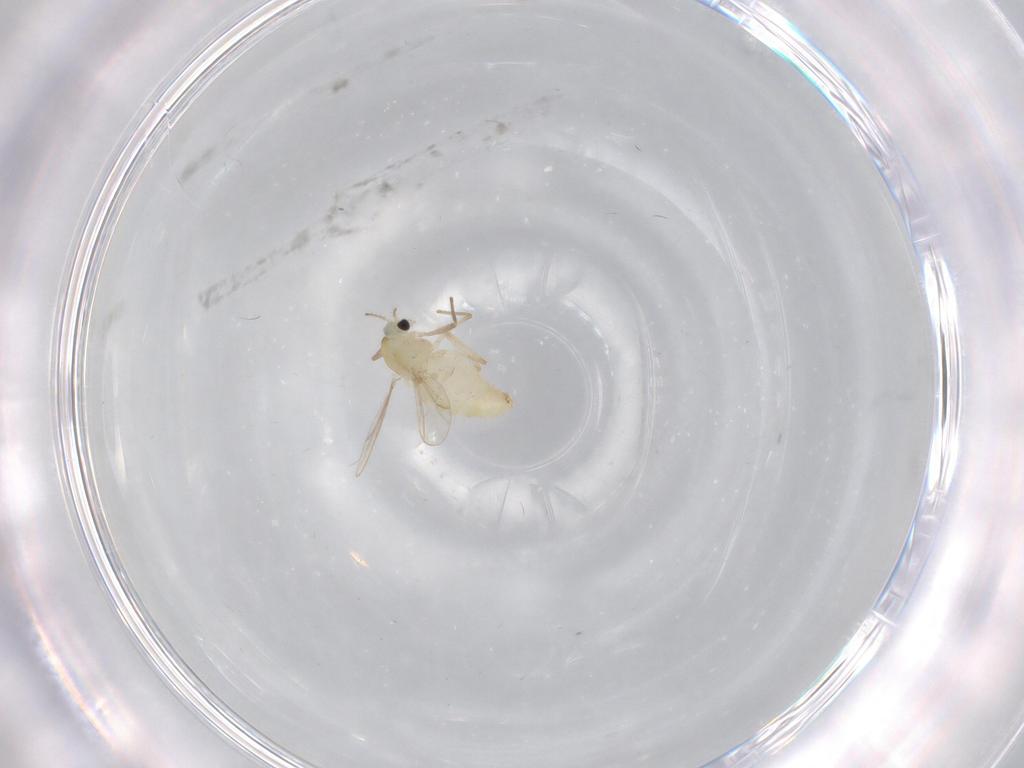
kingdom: Animalia
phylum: Arthropoda
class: Insecta
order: Diptera
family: Chironomidae
